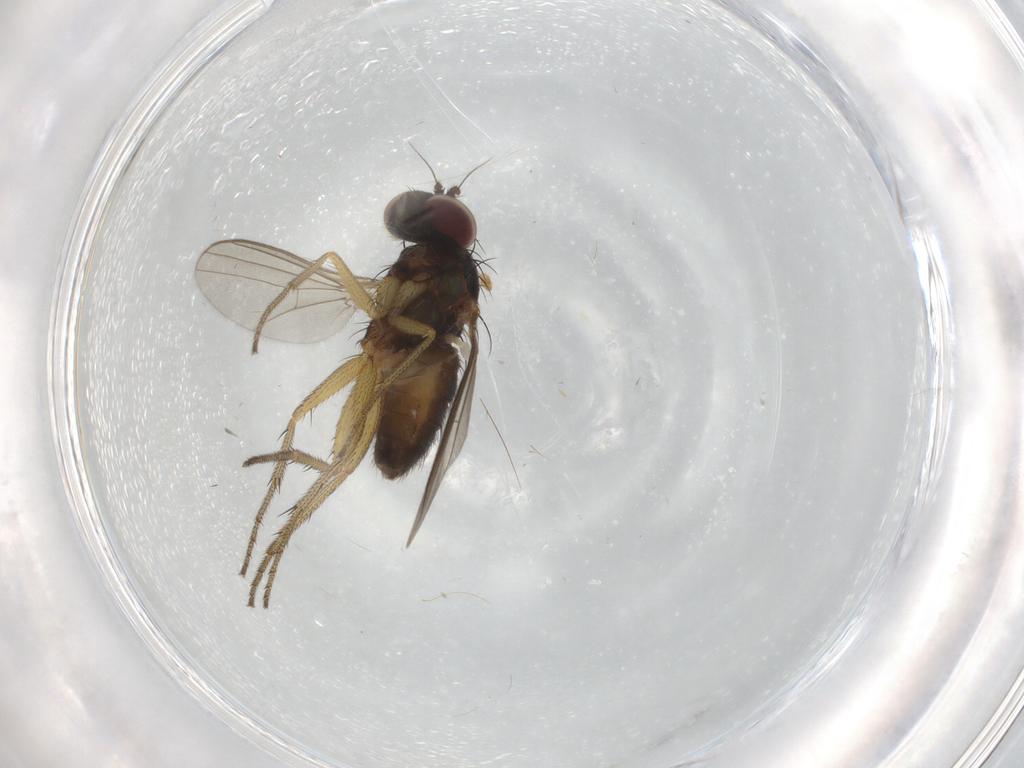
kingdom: Animalia
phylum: Arthropoda
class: Insecta
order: Diptera
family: Dolichopodidae
